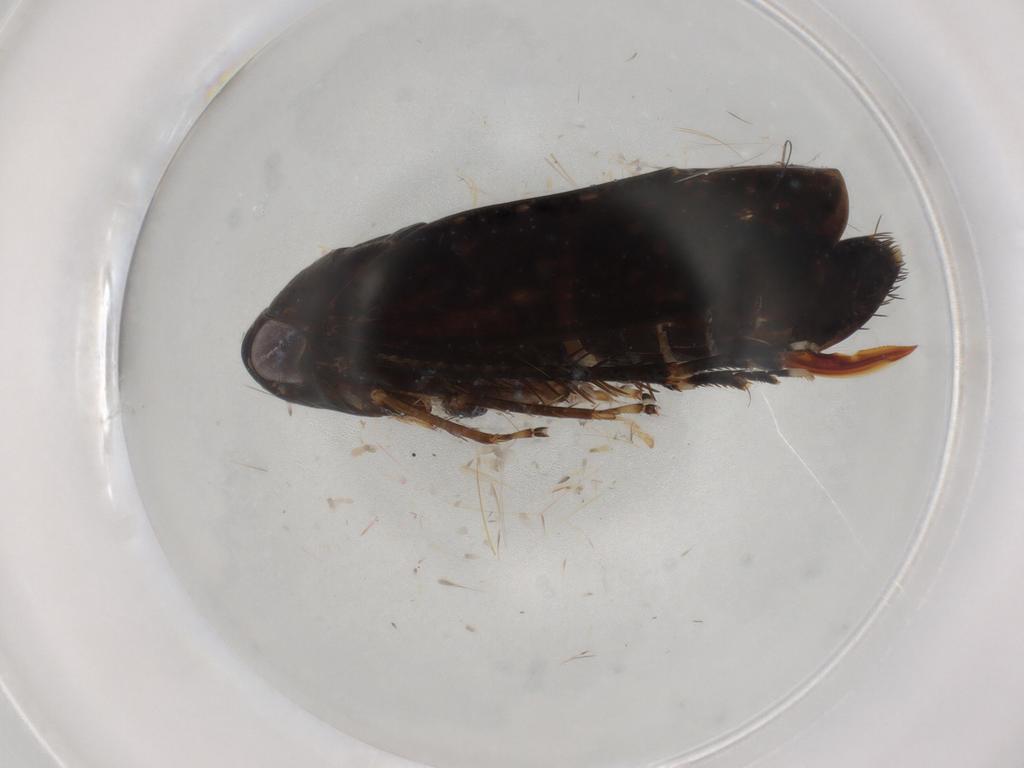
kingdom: Animalia
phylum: Arthropoda
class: Insecta
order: Hemiptera
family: Cicadellidae
